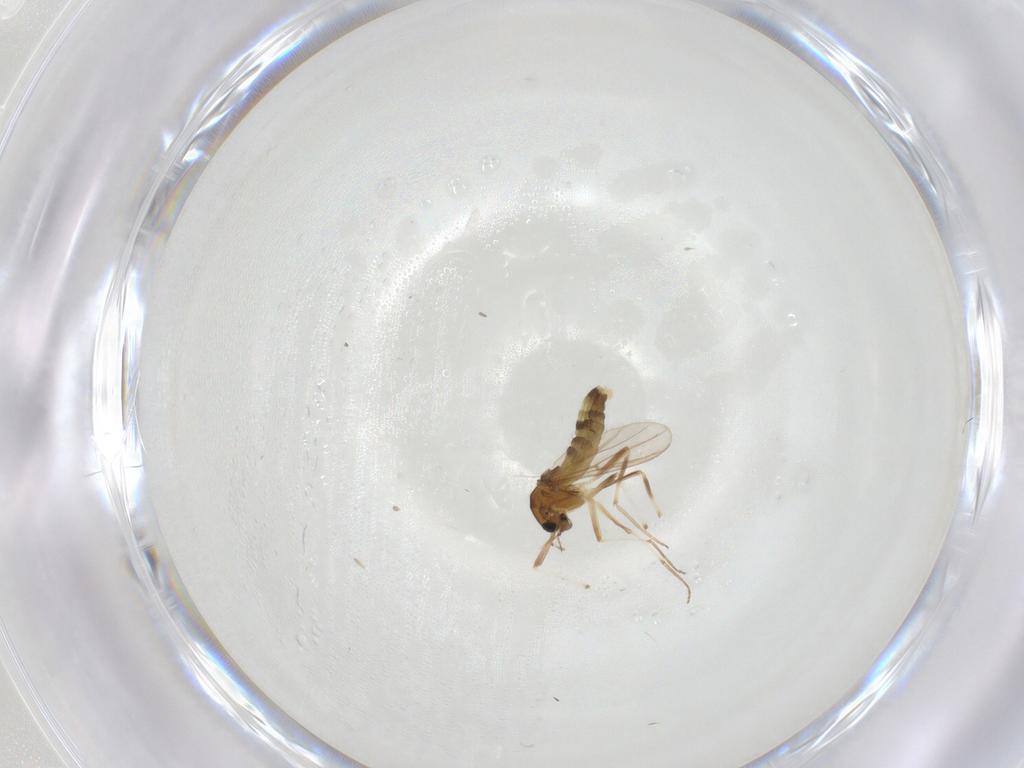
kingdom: Animalia
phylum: Arthropoda
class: Insecta
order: Diptera
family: Chironomidae
